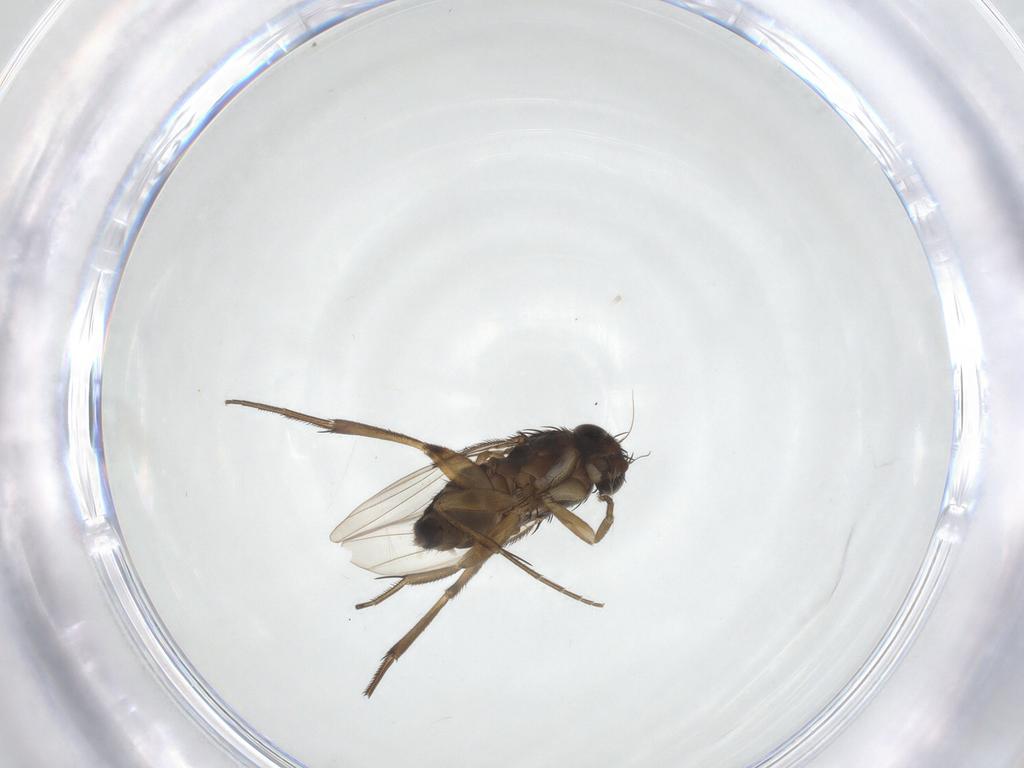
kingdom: Animalia
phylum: Arthropoda
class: Insecta
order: Diptera
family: Phoridae
